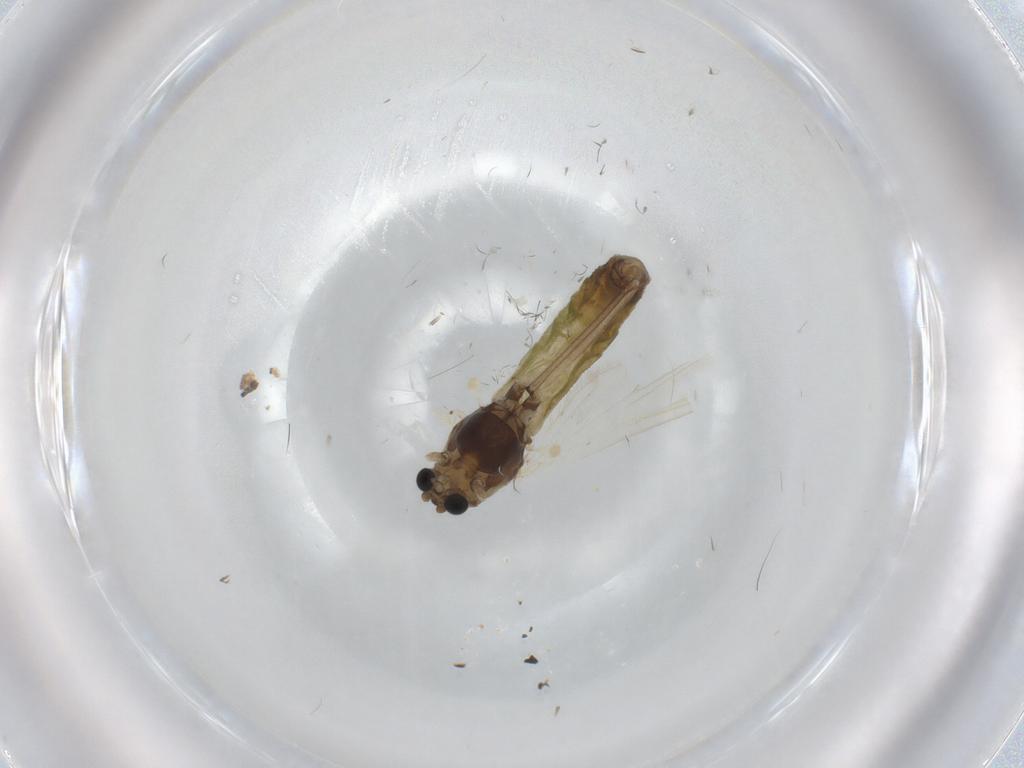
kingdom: Animalia
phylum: Arthropoda
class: Insecta
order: Diptera
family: Chironomidae
